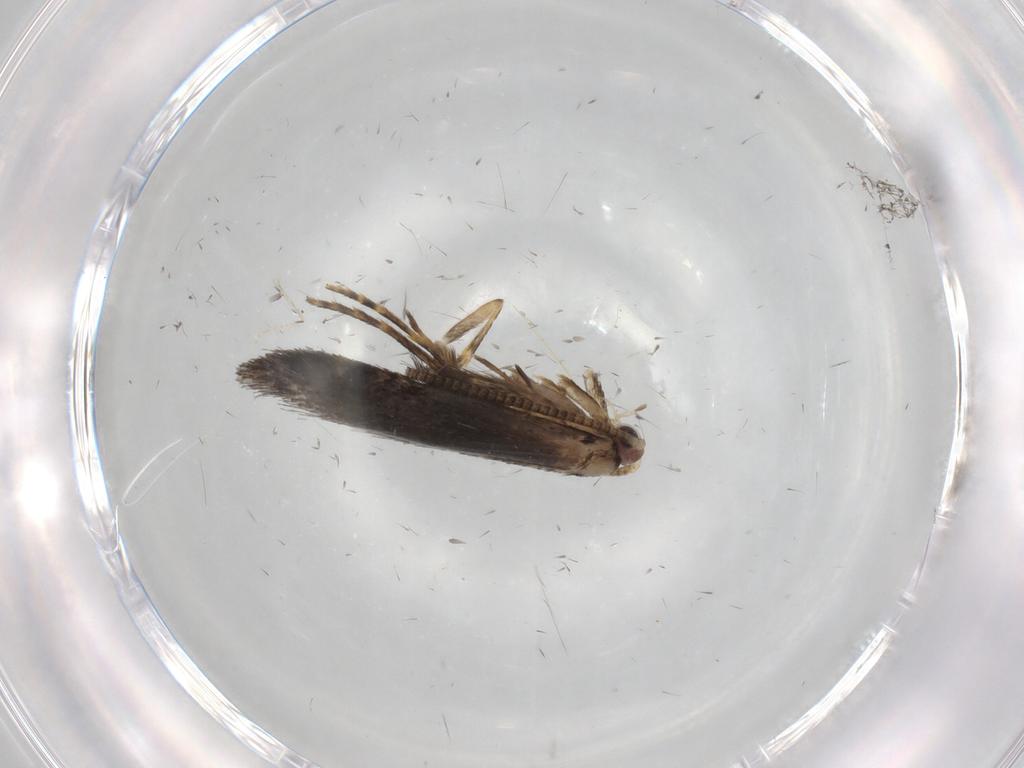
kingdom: Animalia
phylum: Arthropoda
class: Insecta
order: Lepidoptera
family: Tineidae
